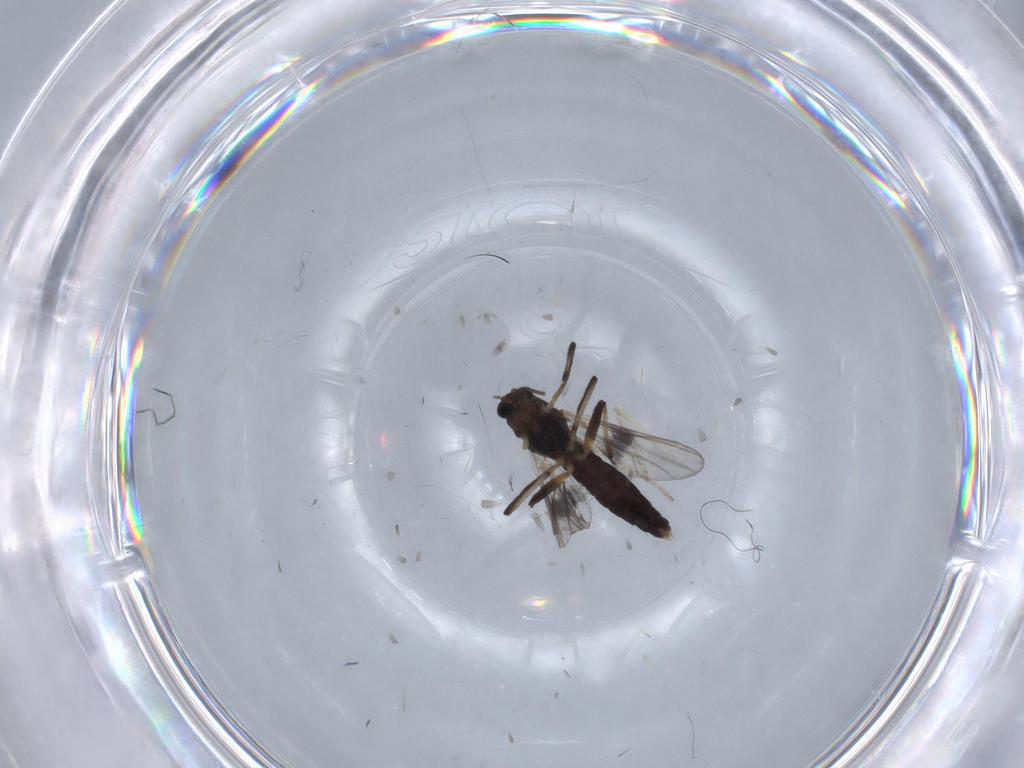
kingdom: Animalia
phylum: Arthropoda
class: Insecta
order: Diptera
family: Chironomidae
